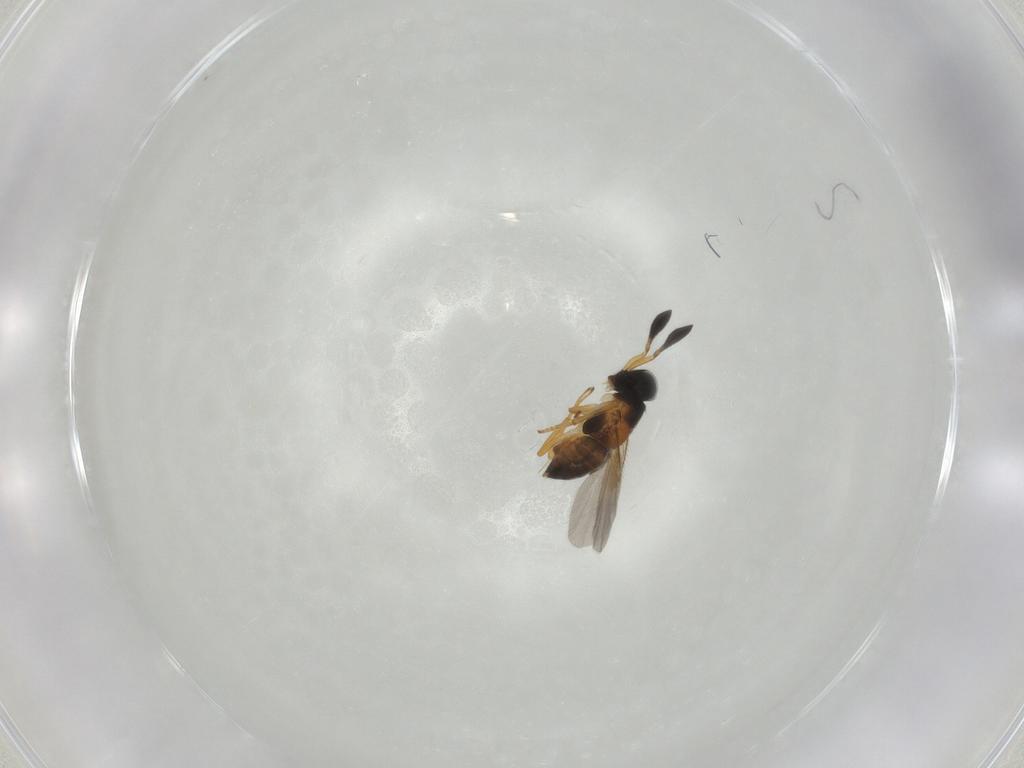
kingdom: Animalia
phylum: Arthropoda
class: Insecta
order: Hymenoptera
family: Encyrtidae
